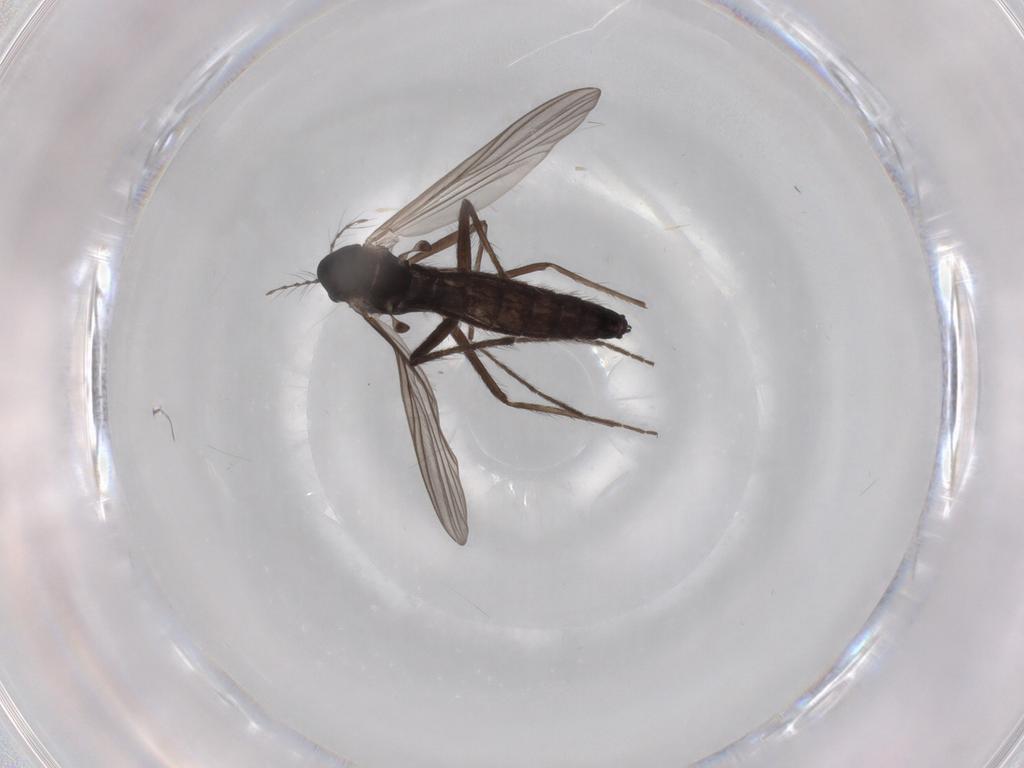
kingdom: Animalia
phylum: Arthropoda
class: Insecta
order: Diptera
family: Chironomidae
